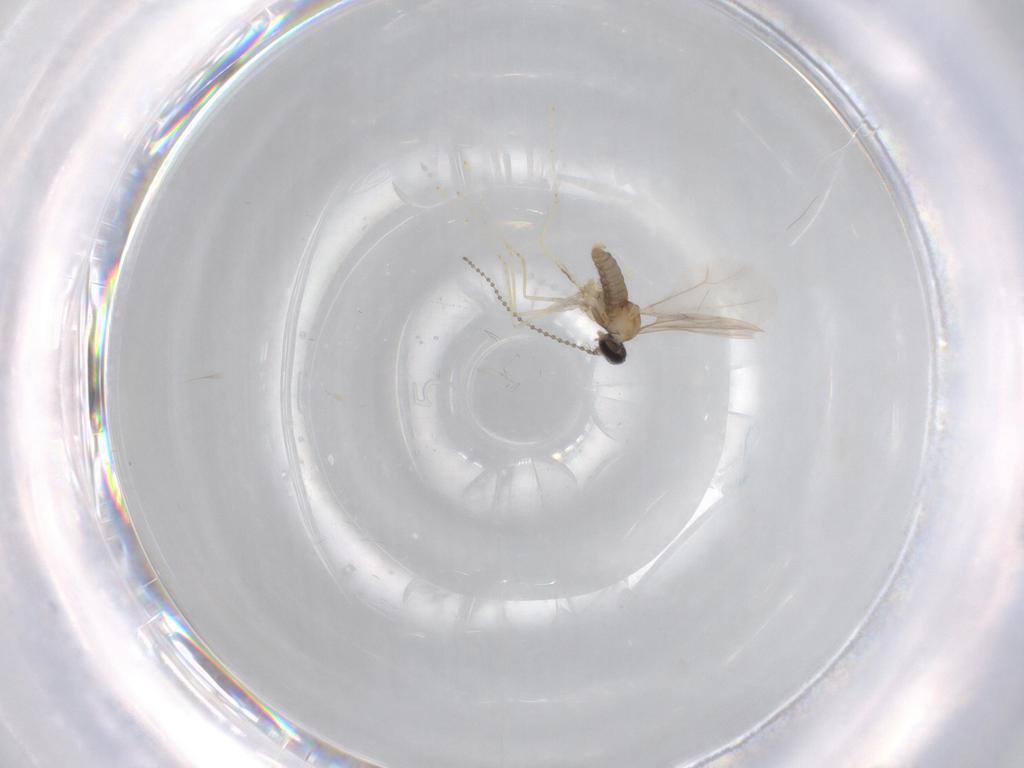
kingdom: Animalia
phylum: Arthropoda
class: Insecta
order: Diptera
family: Cecidomyiidae
